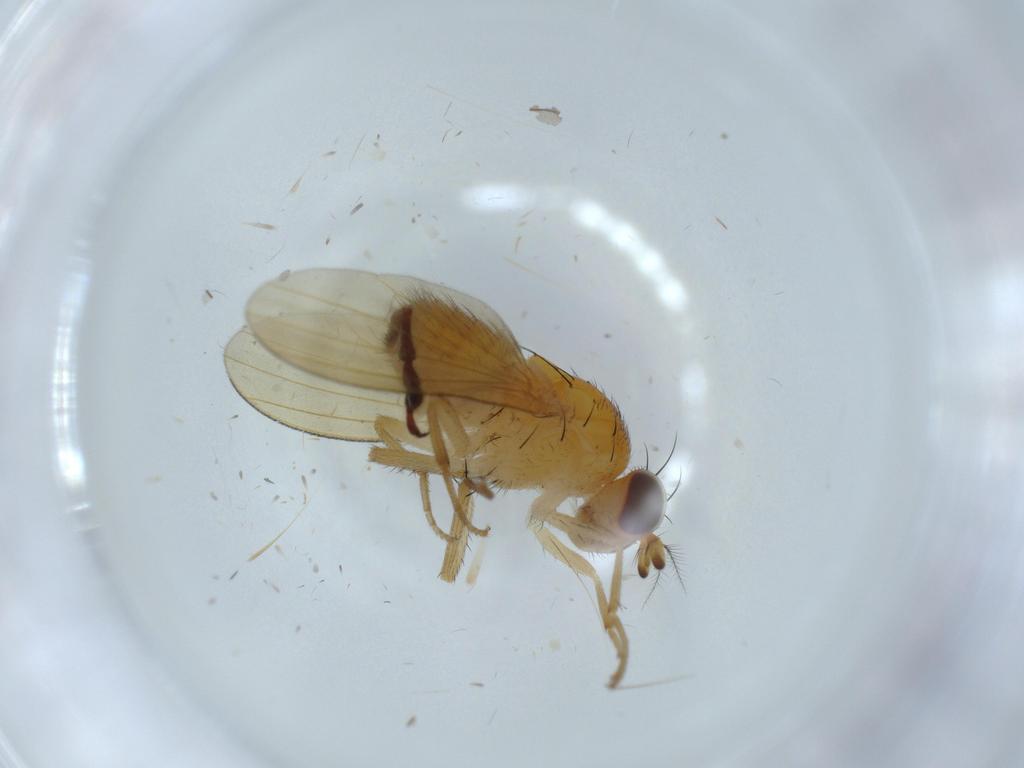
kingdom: Animalia
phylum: Arthropoda
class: Insecta
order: Diptera
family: Lauxaniidae
